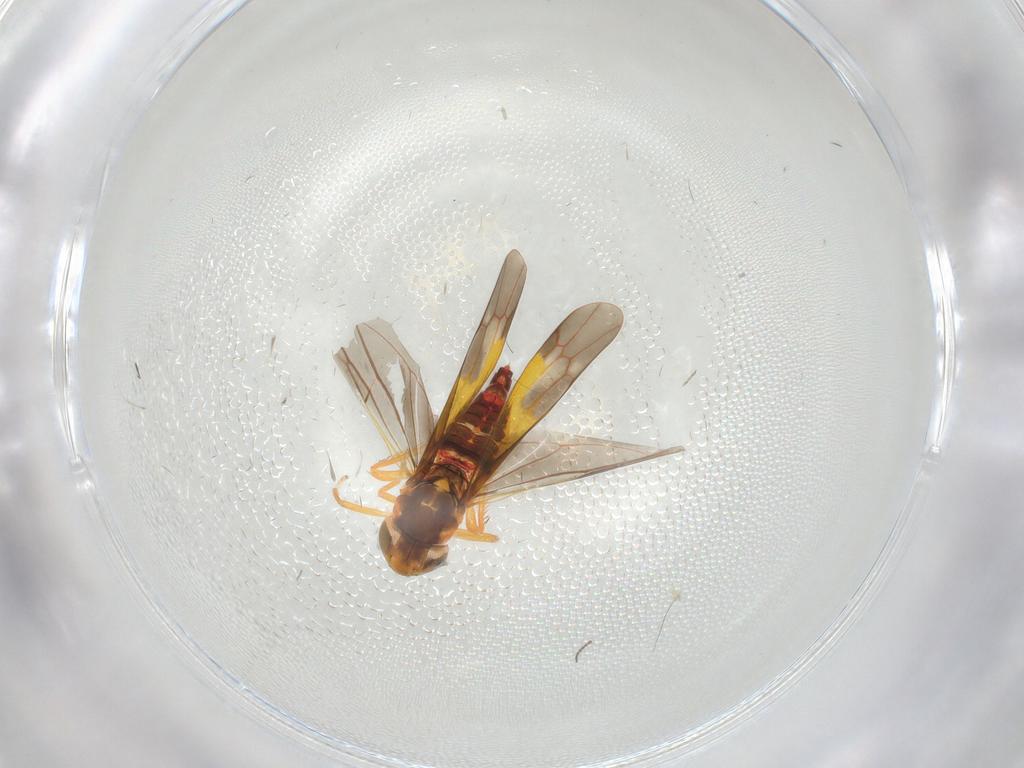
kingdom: Animalia
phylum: Arthropoda
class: Insecta
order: Hemiptera
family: Cicadellidae
